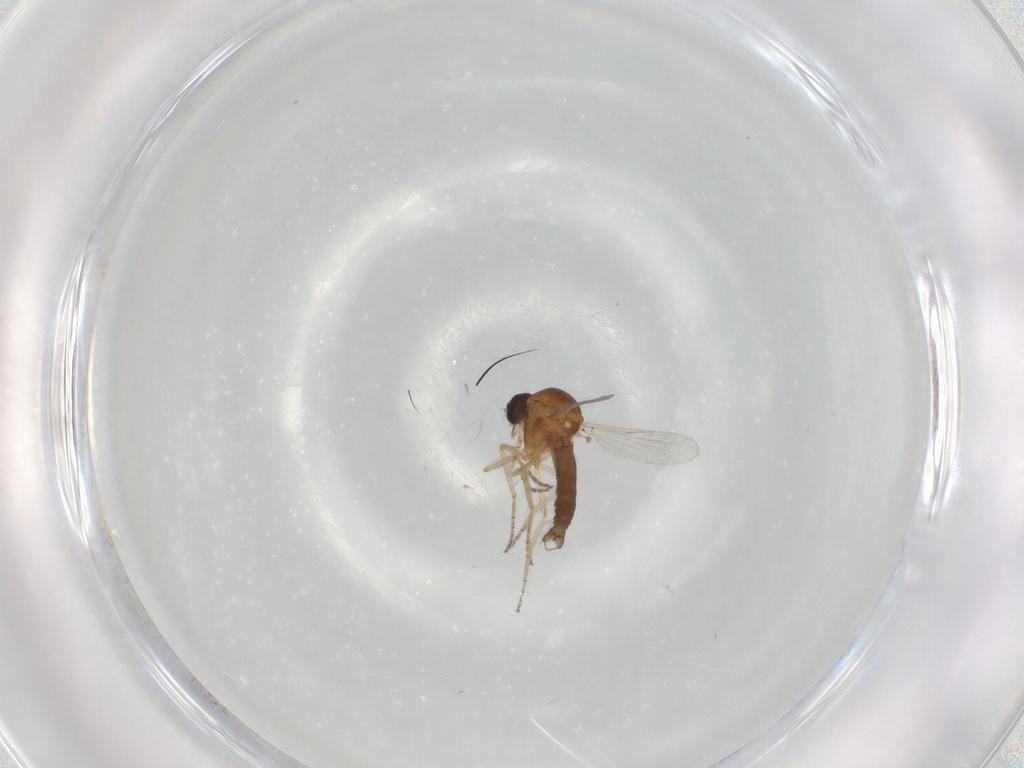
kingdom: Animalia
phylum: Arthropoda
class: Insecta
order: Diptera
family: Ceratopogonidae
